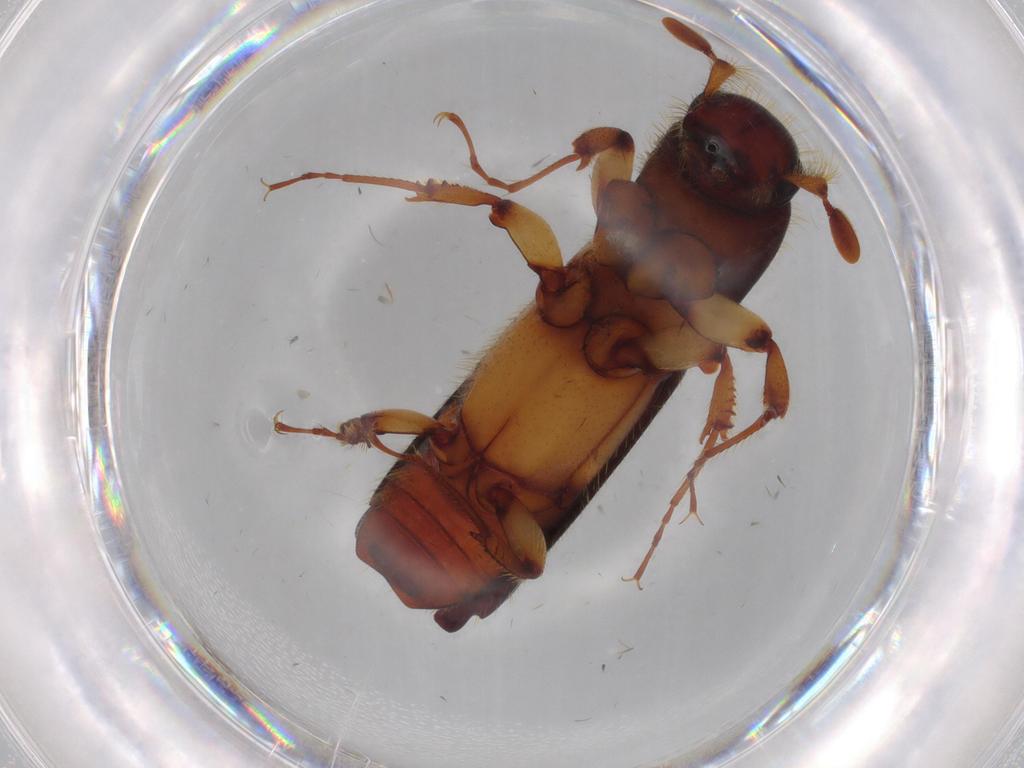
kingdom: Animalia
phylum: Arthropoda
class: Insecta
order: Coleoptera
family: Curculionidae
